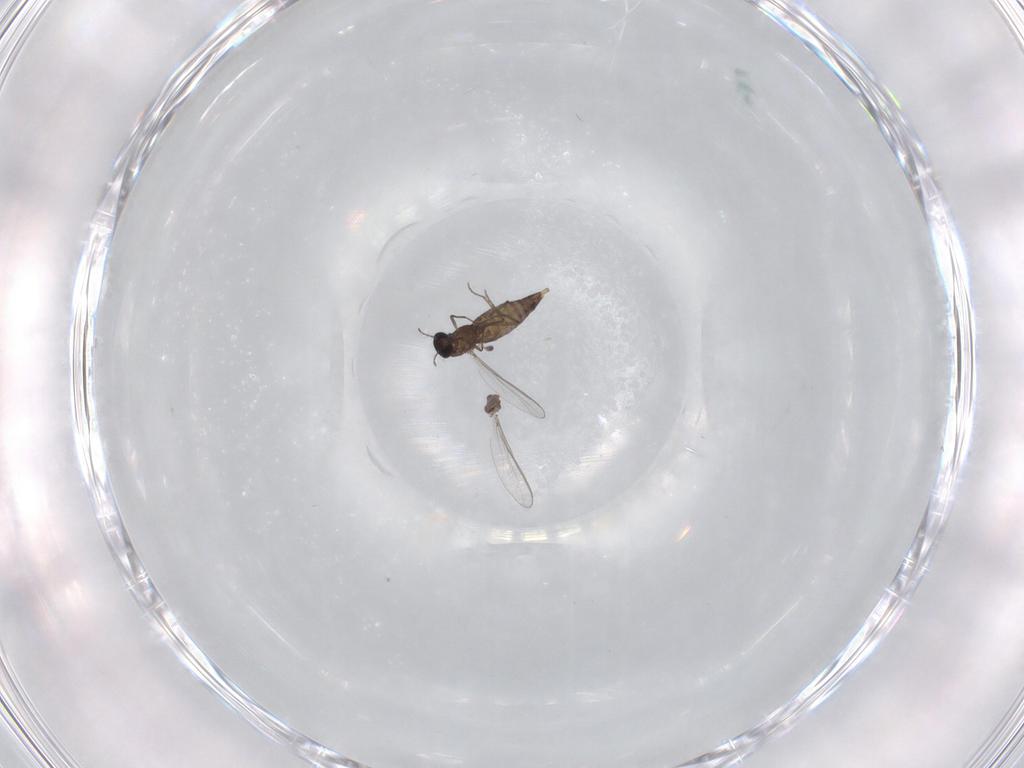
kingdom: Animalia
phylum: Arthropoda
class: Insecta
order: Diptera
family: Chironomidae
